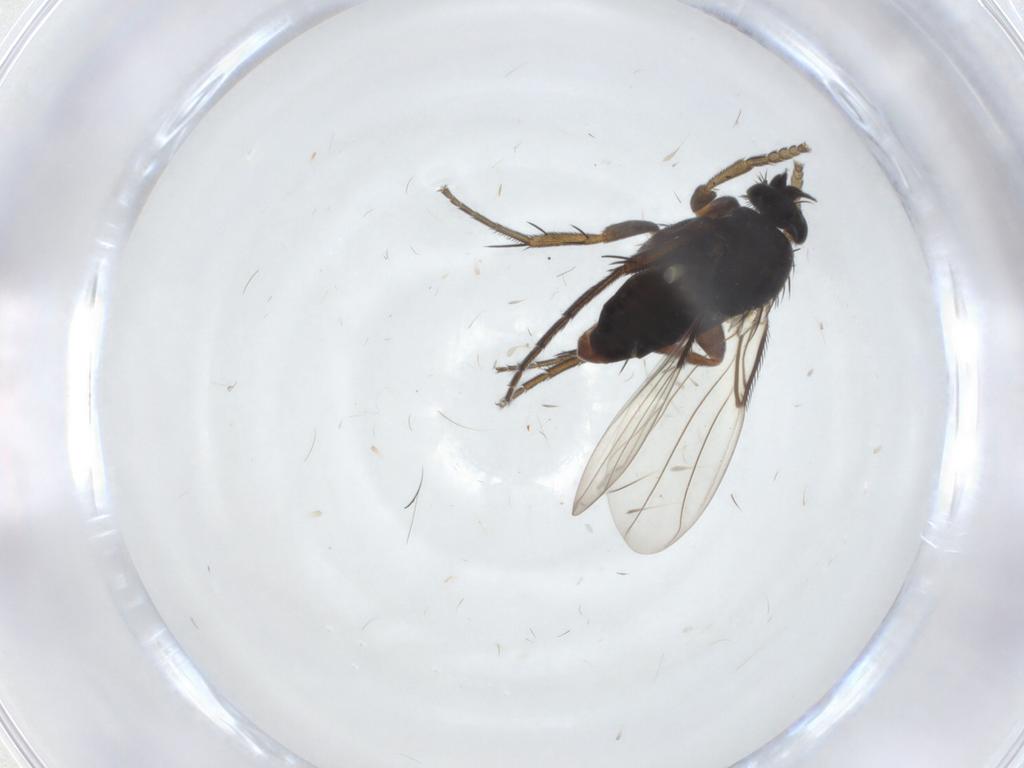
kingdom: Animalia
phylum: Arthropoda
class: Insecta
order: Diptera
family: Phoridae
